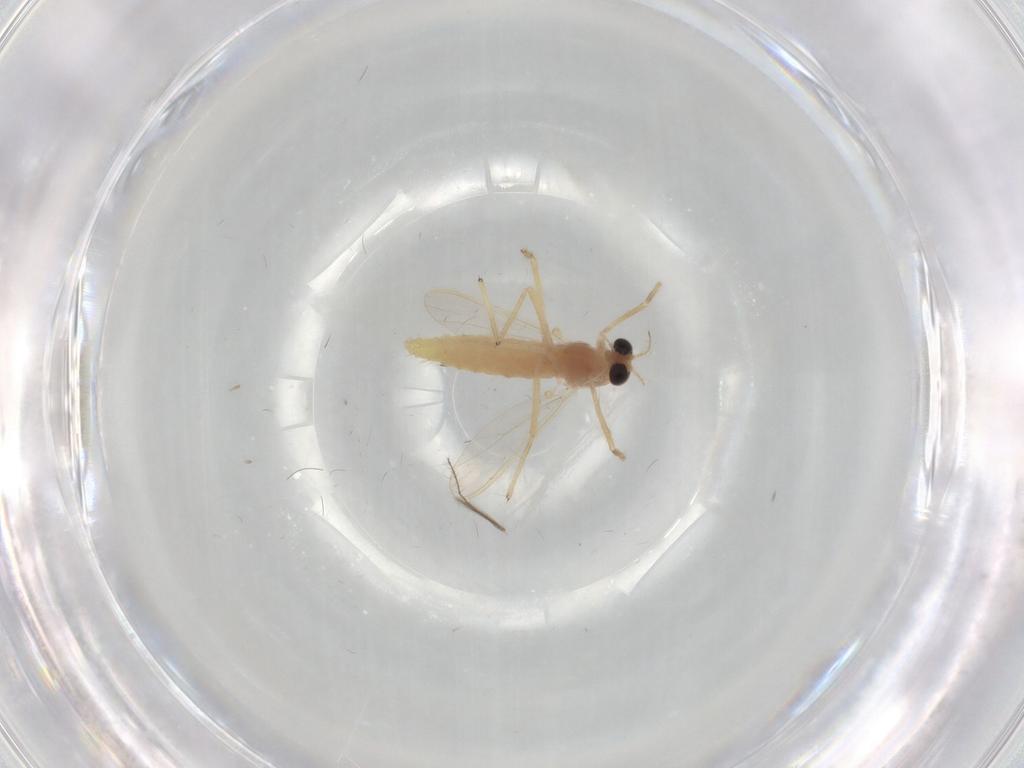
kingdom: Animalia
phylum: Arthropoda
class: Insecta
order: Diptera
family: Chironomidae
